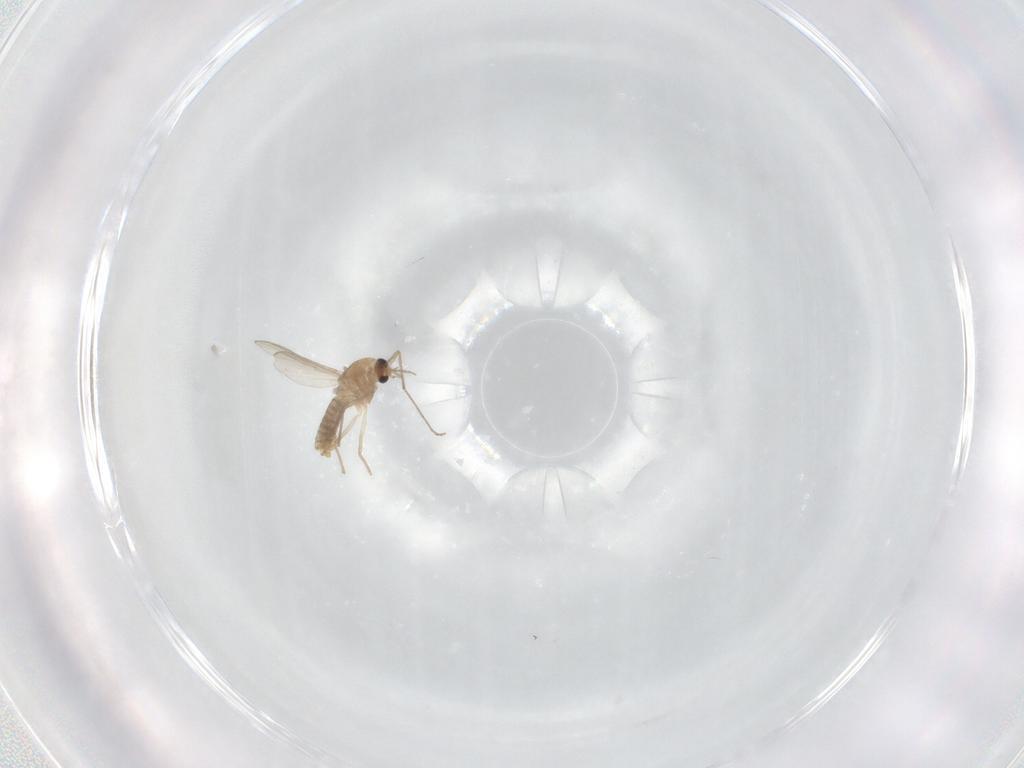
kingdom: Animalia
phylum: Arthropoda
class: Insecta
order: Diptera
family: Chironomidae
